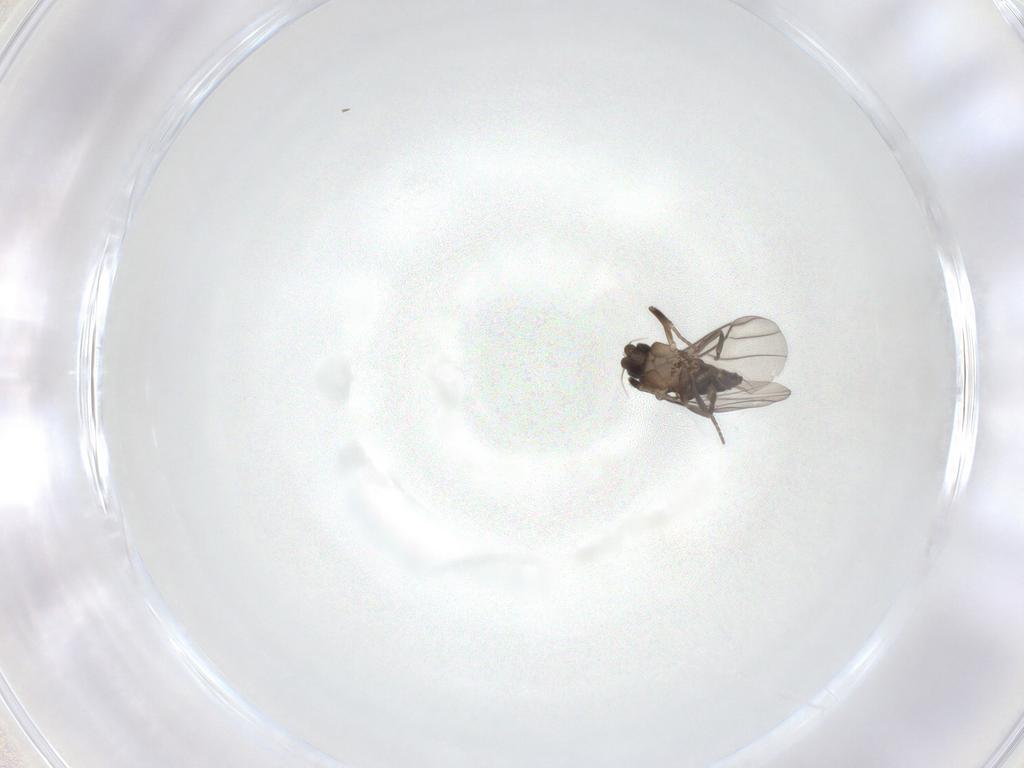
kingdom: Animalia
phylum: Arthropoda
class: Insecta
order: Diptera
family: Phoridae
